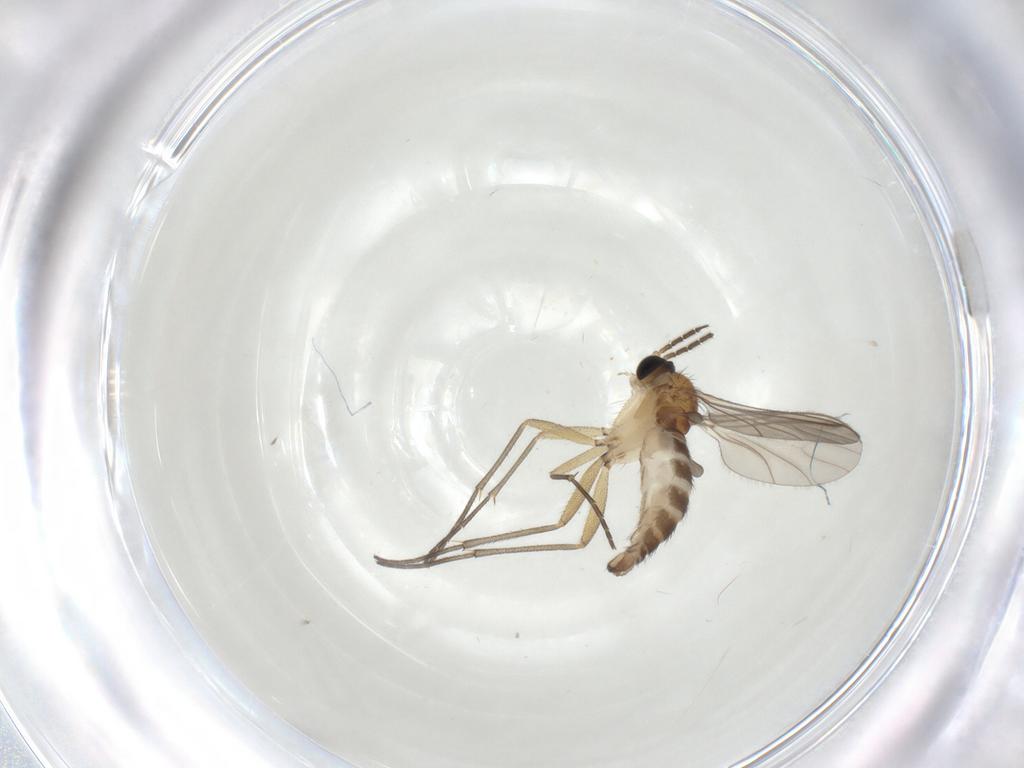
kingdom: Animalia
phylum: Arthropoda
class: Insecta
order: Diptera
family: Sciaridae
